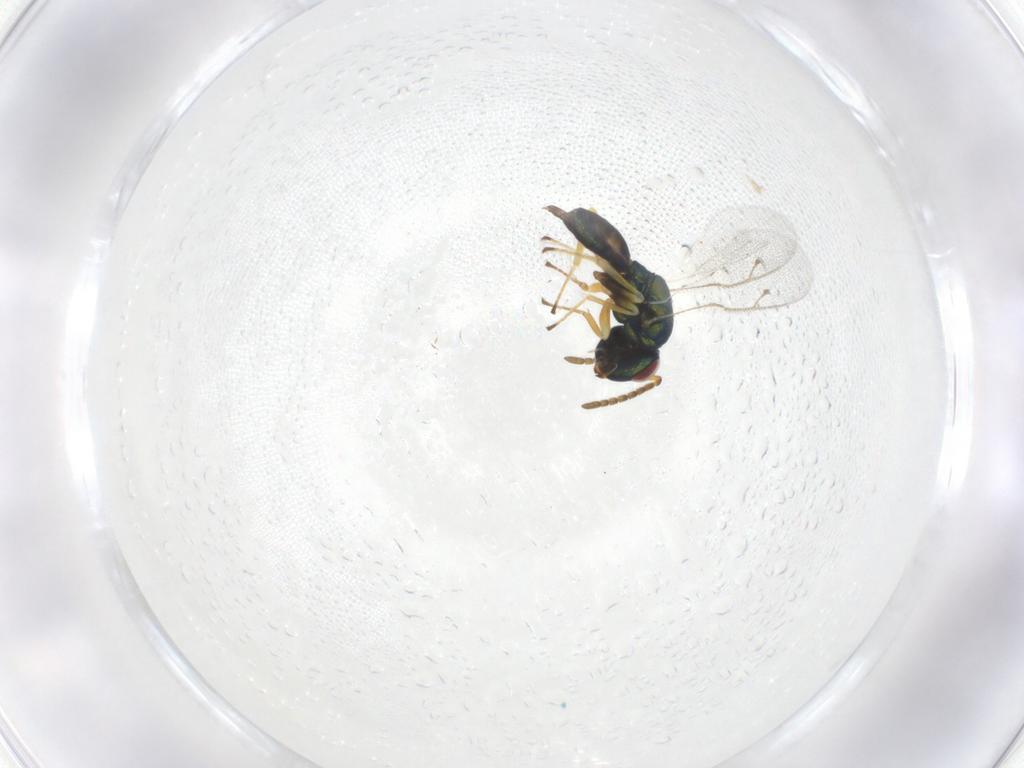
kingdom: Animalia
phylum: Arthropoda
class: Insecta
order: Hymenoptera
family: Pteromalidae
